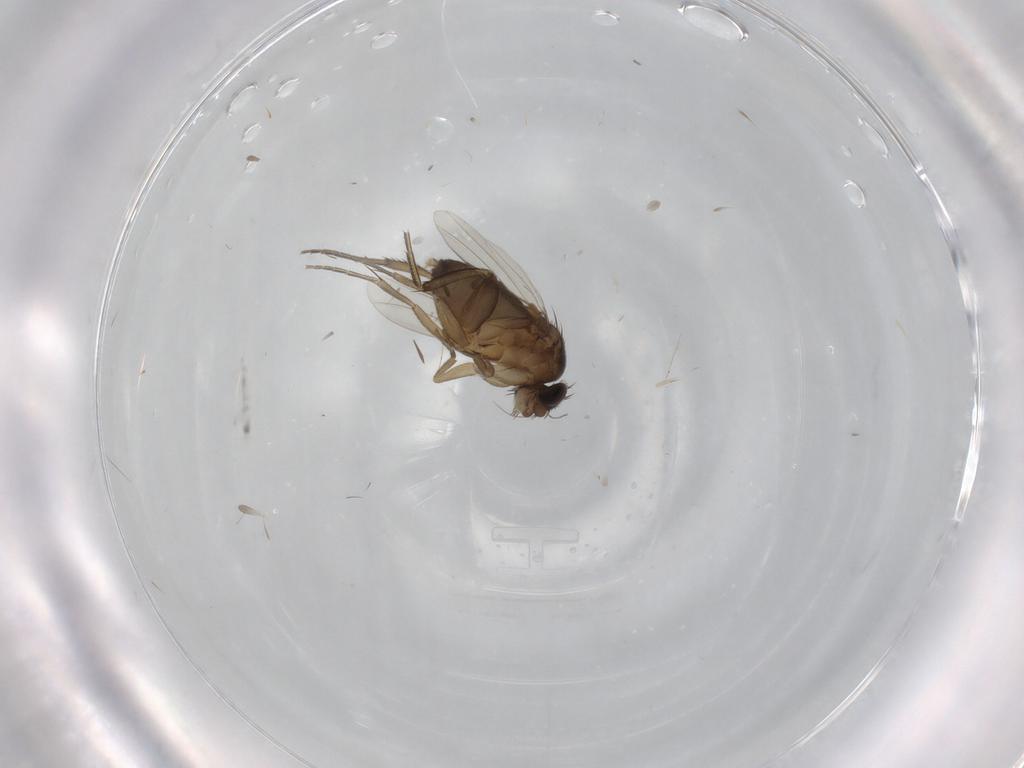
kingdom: Animalia
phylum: Arthropoda
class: Insecta
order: Diptera
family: Phoridae
